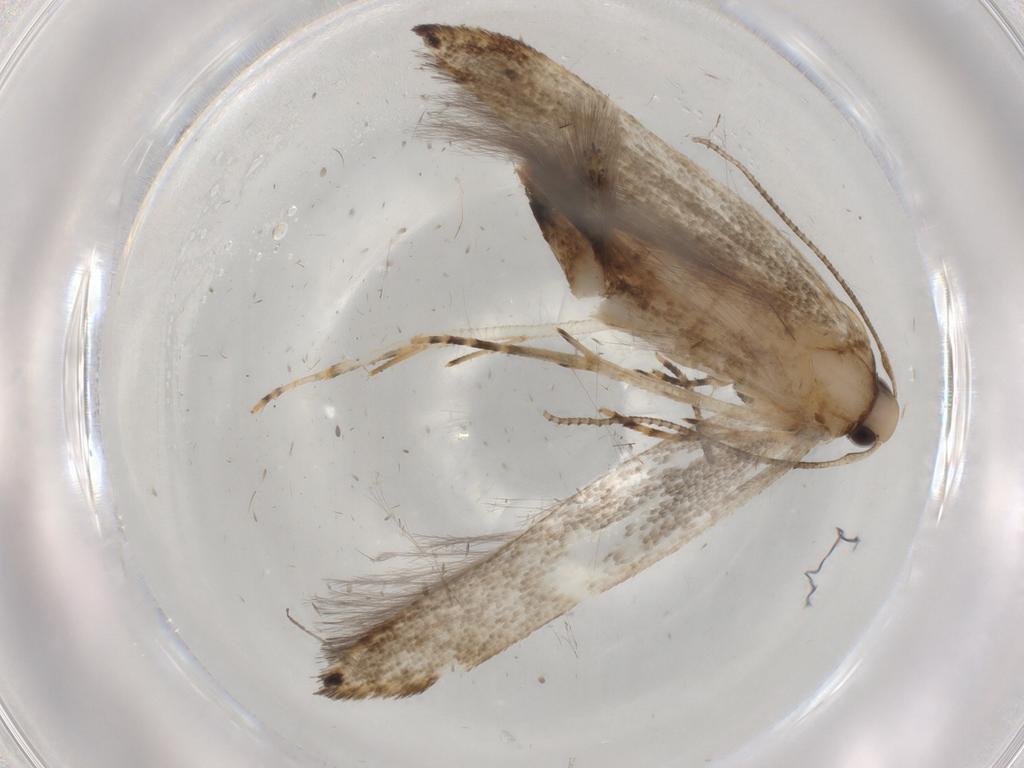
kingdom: Animalia
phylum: Arthropoda
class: Insecta
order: Lepidoptera
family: Cosmopterigidae
